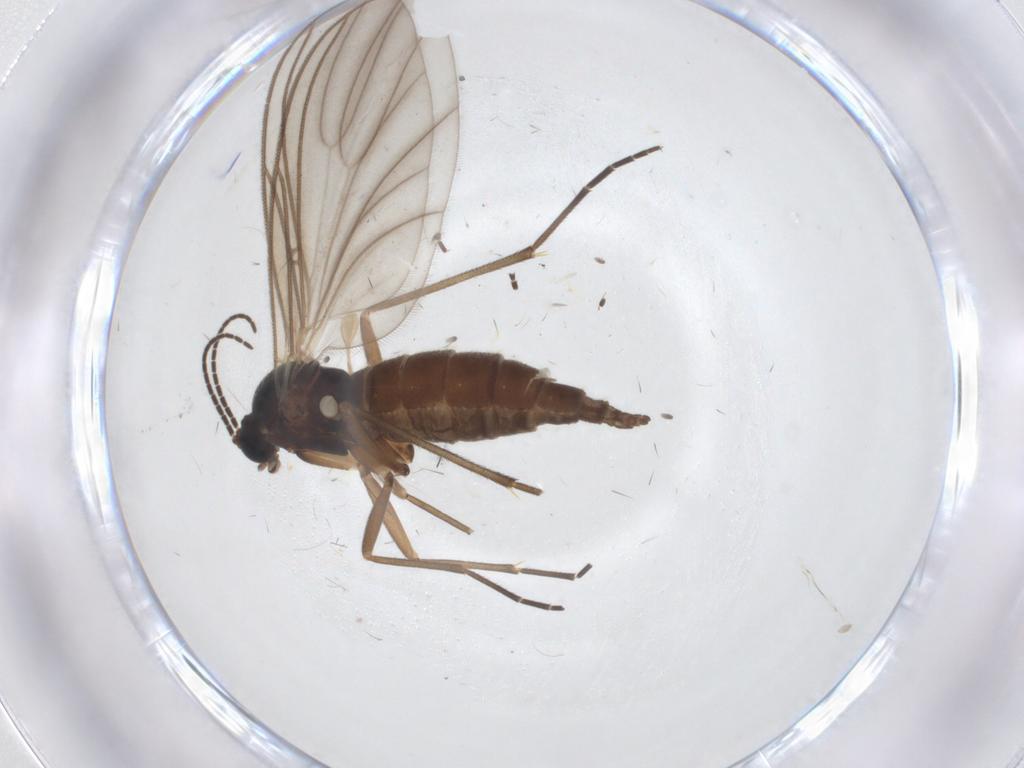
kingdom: Animalia
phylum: Arthropoda
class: Insecta
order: Diptera
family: Sciaridae
